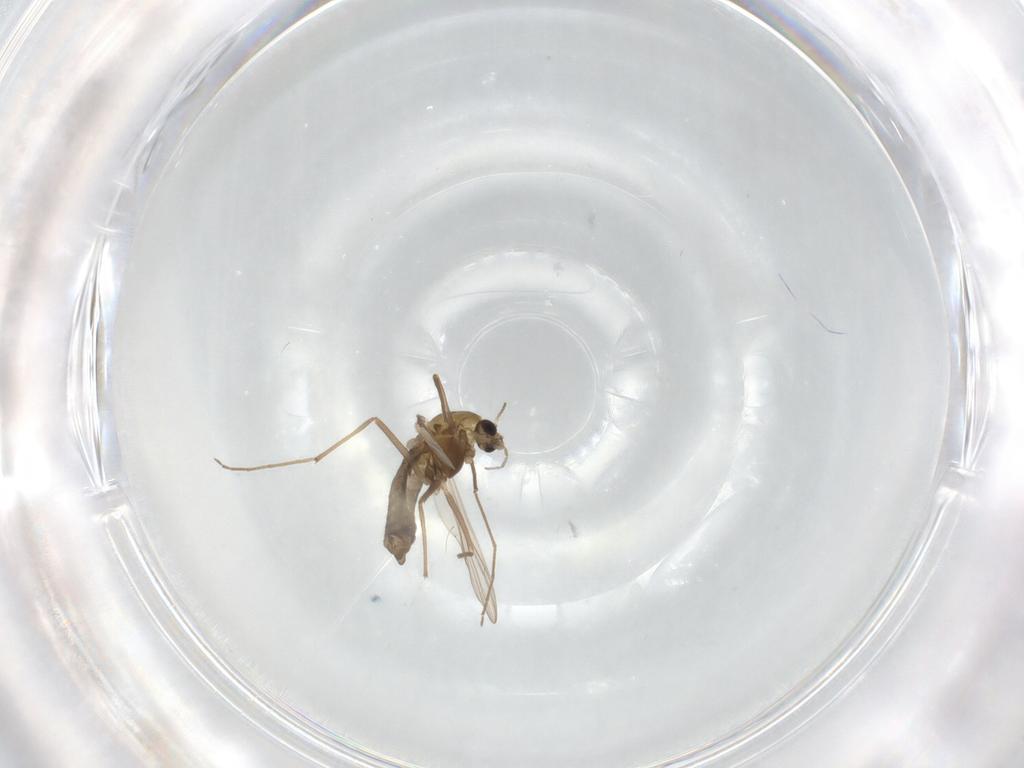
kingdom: Animalia
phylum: Arthropoda
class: Insecta
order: Diptera
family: Chironomidae
